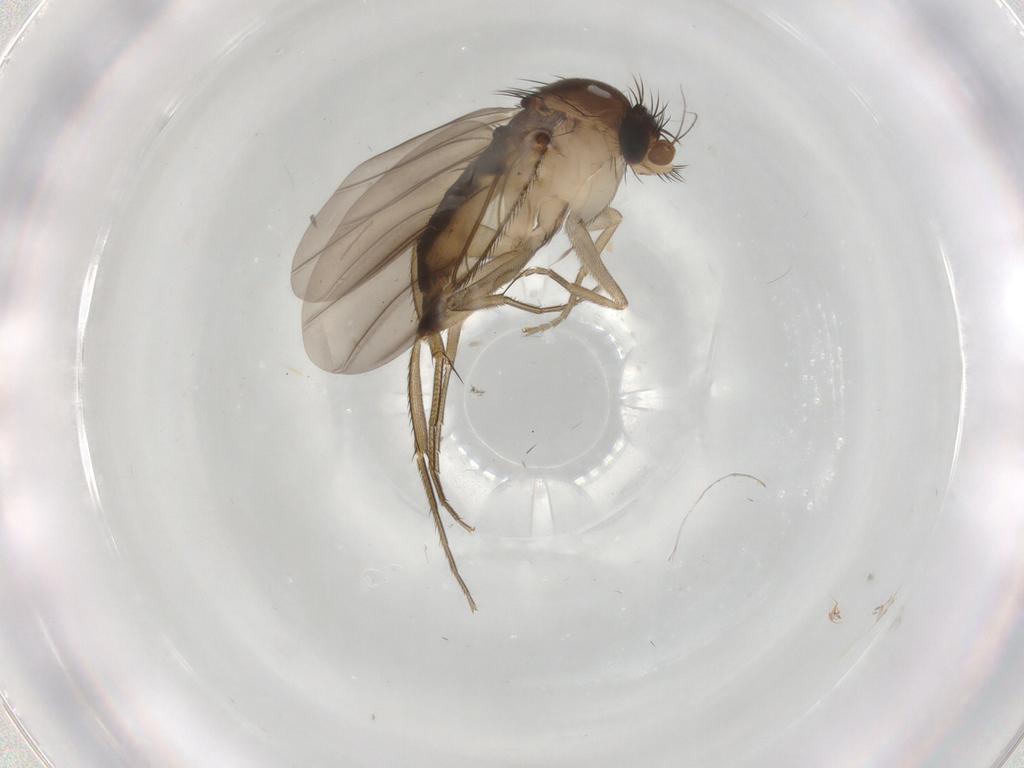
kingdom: Animalia
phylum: Arthropoda
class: Insecta
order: Diptera
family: Phoridae
